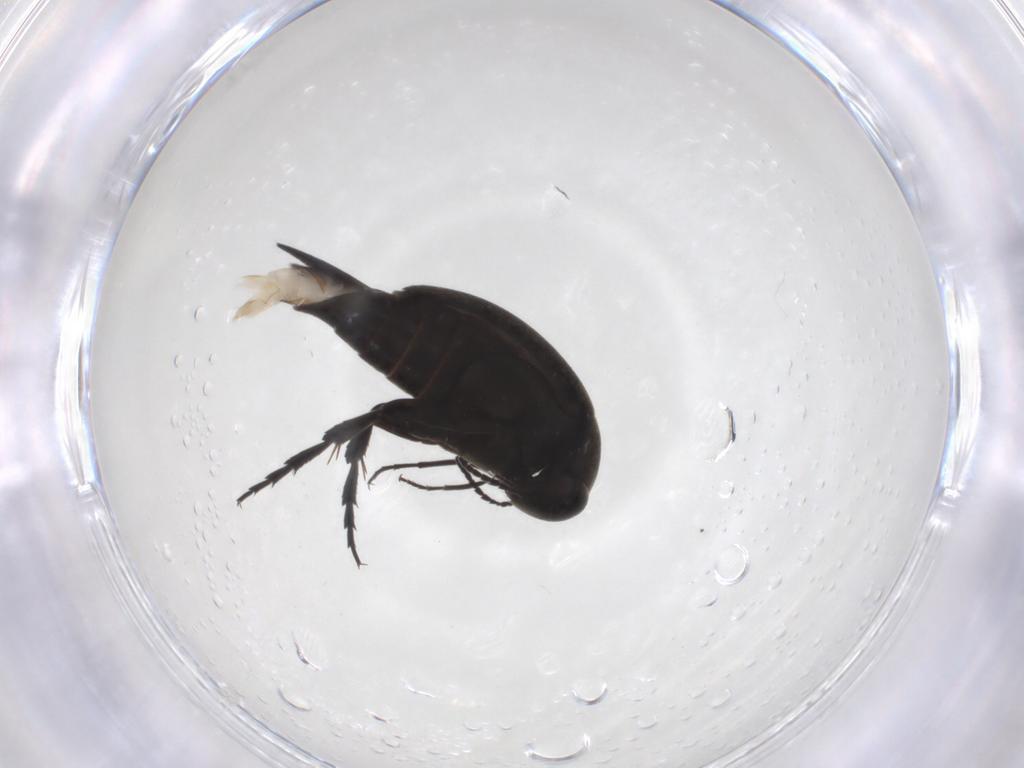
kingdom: Animalia
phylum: Arthropoda
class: Insecta
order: Coleoptera
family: Mordellidae
